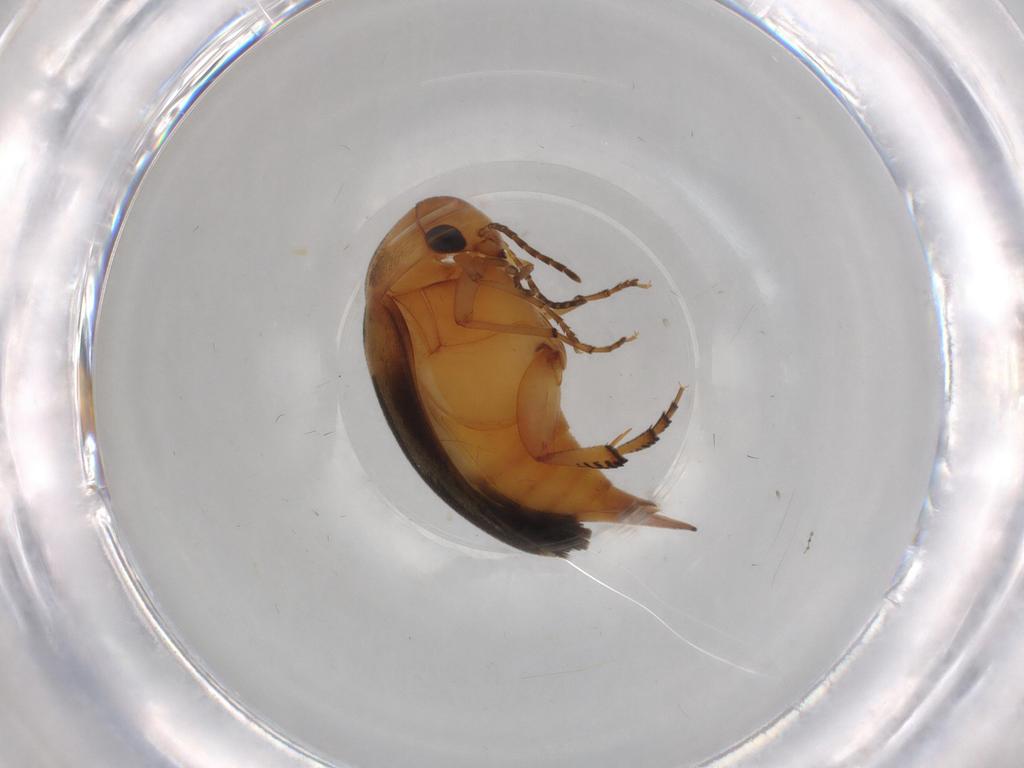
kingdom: Animalia
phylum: Arthropoda
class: Insecta
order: Coleoptera
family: Mordellidae
